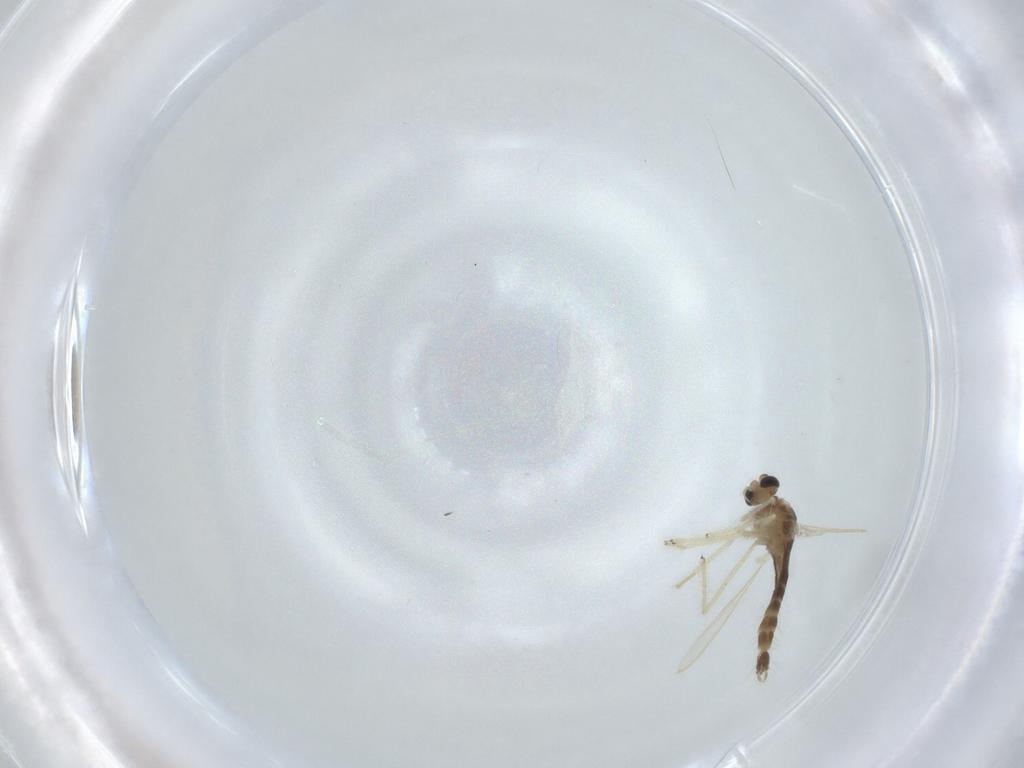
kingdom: Animalia
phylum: Arthropoda
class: Insecta
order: Diptera
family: Chironomidae
